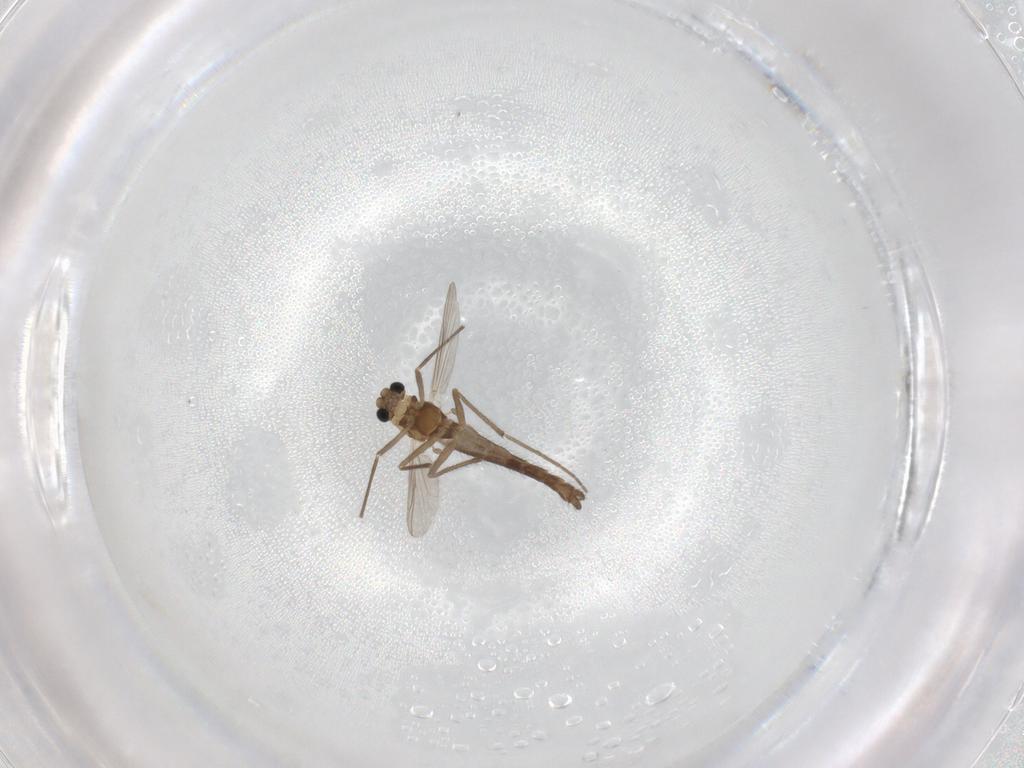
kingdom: Animalia
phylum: Arthropoda
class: Insecta
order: Diptera
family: Chironomidae
